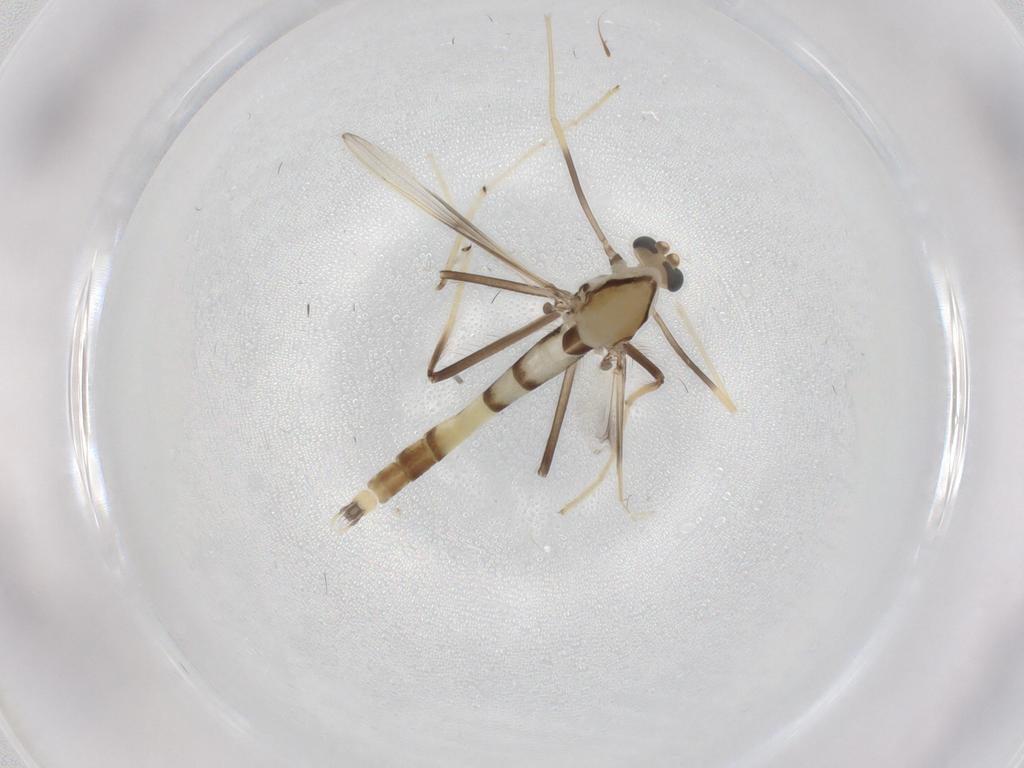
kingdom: Animalia
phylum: Arthropoda
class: Insecta
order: Diptera
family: Chironomidae
